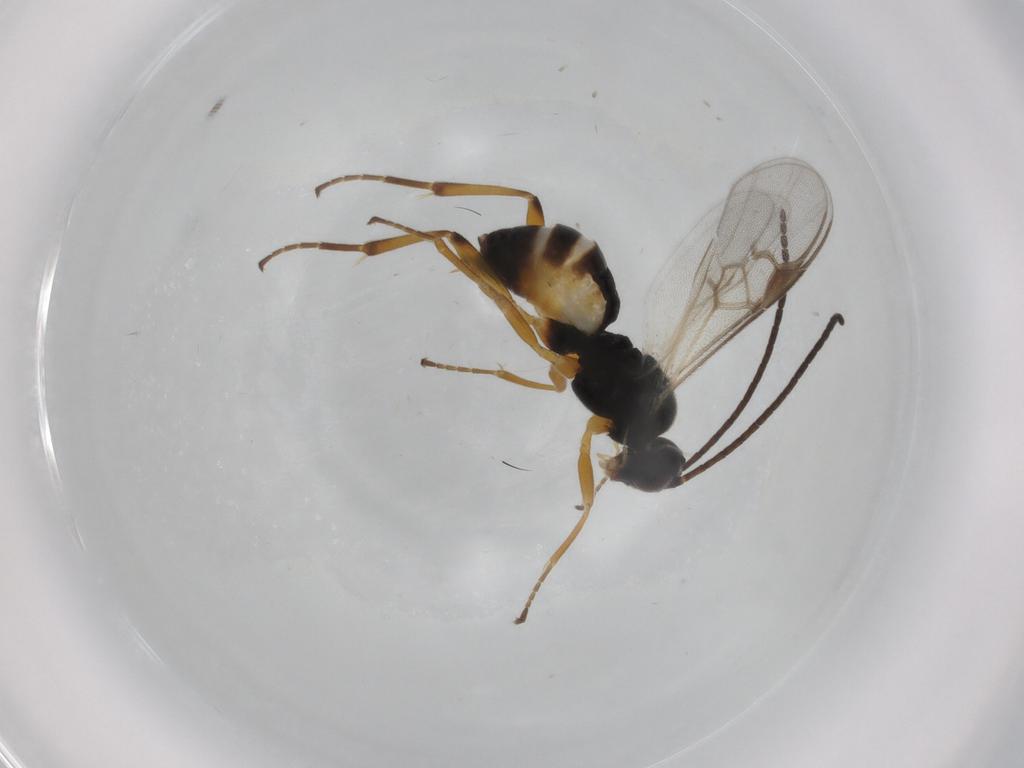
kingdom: Animalia
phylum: Arthropoda
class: Insecta
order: Hymenoptera
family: Braconidae
